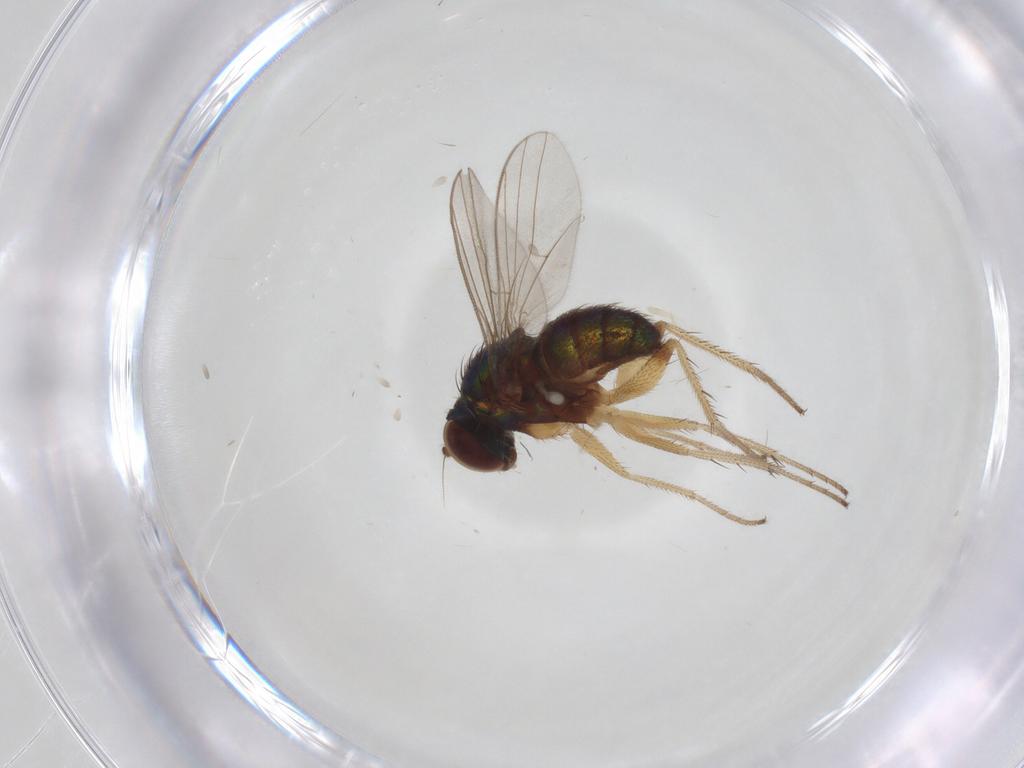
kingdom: Animalia
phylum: Arthropoda
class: Insecta
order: Diptera
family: Dolichopodidae
